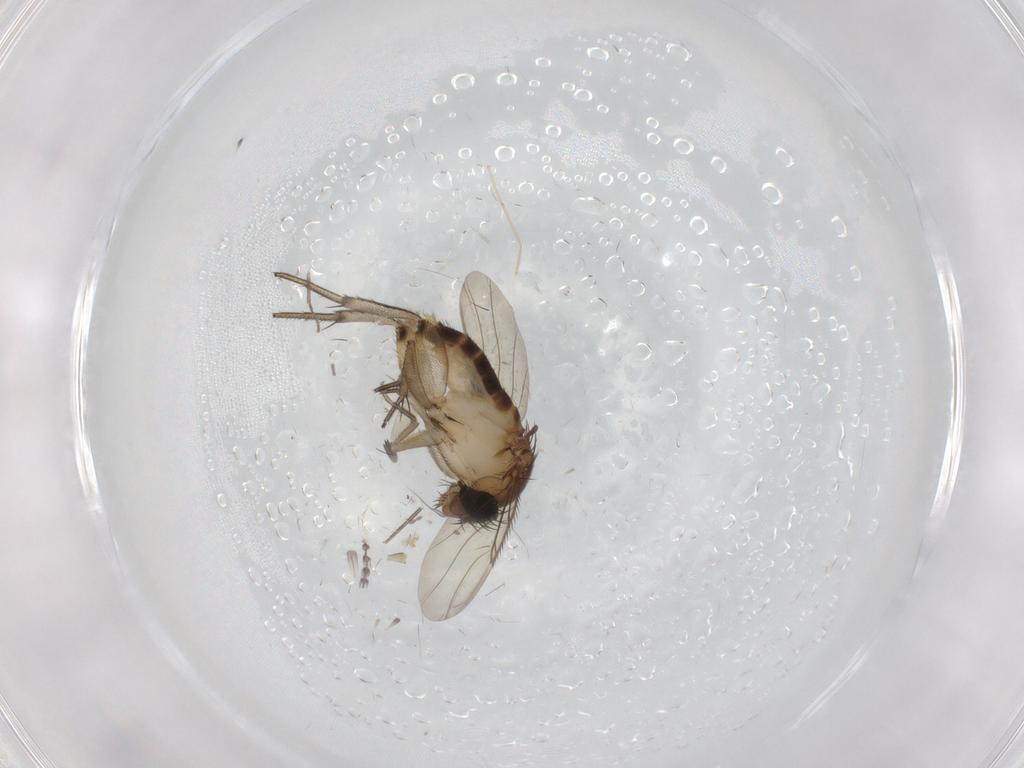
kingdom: Animalia
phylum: Arthropoda
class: Insecta
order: Diptera
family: Phoridae
